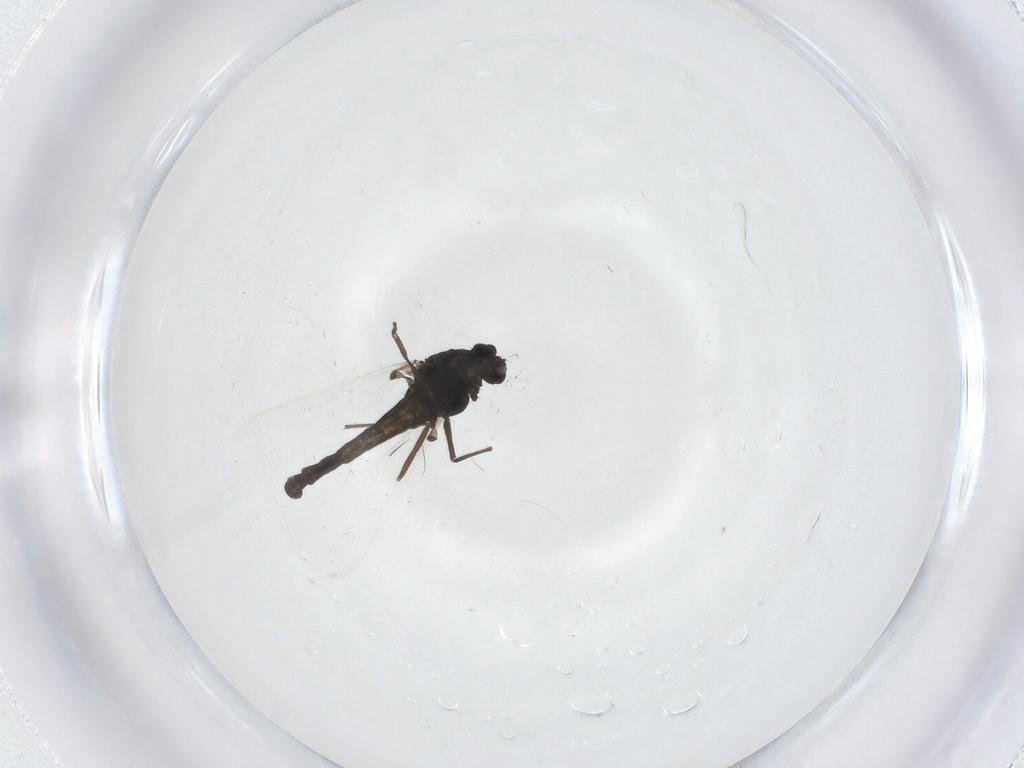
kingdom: Animalia
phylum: Arthropoda
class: Insecta
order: Diptera
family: Chironomidae
